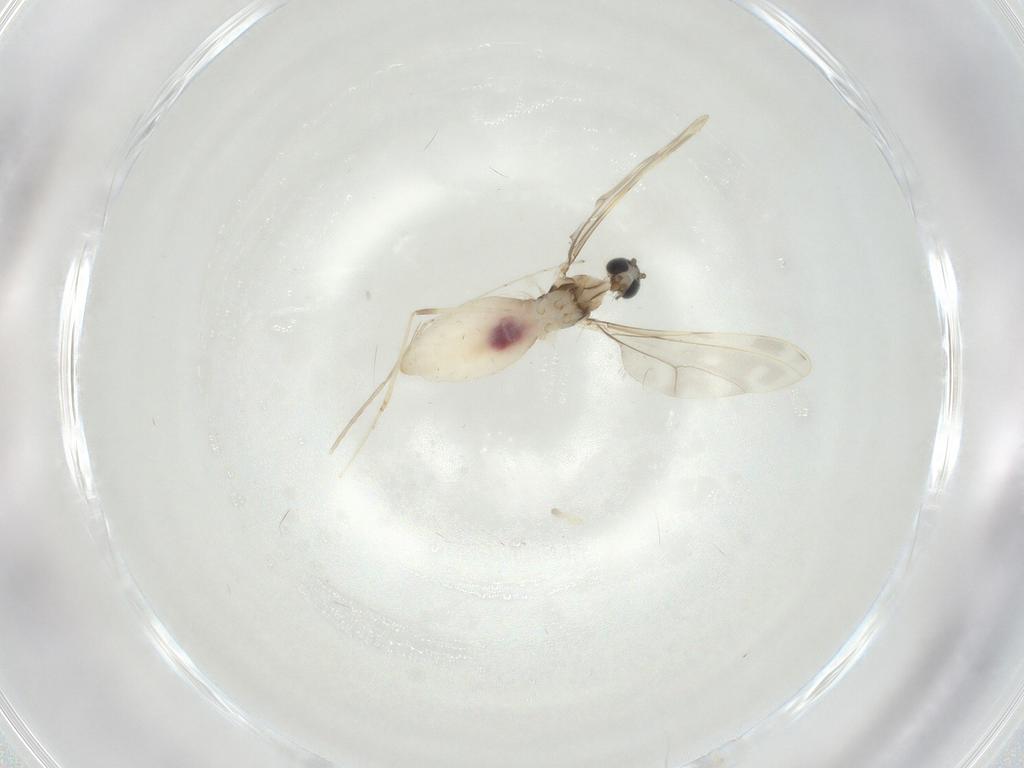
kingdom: Animalia
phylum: Arthropoda
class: Insecta
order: Diptera
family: Cecidomyiidae
